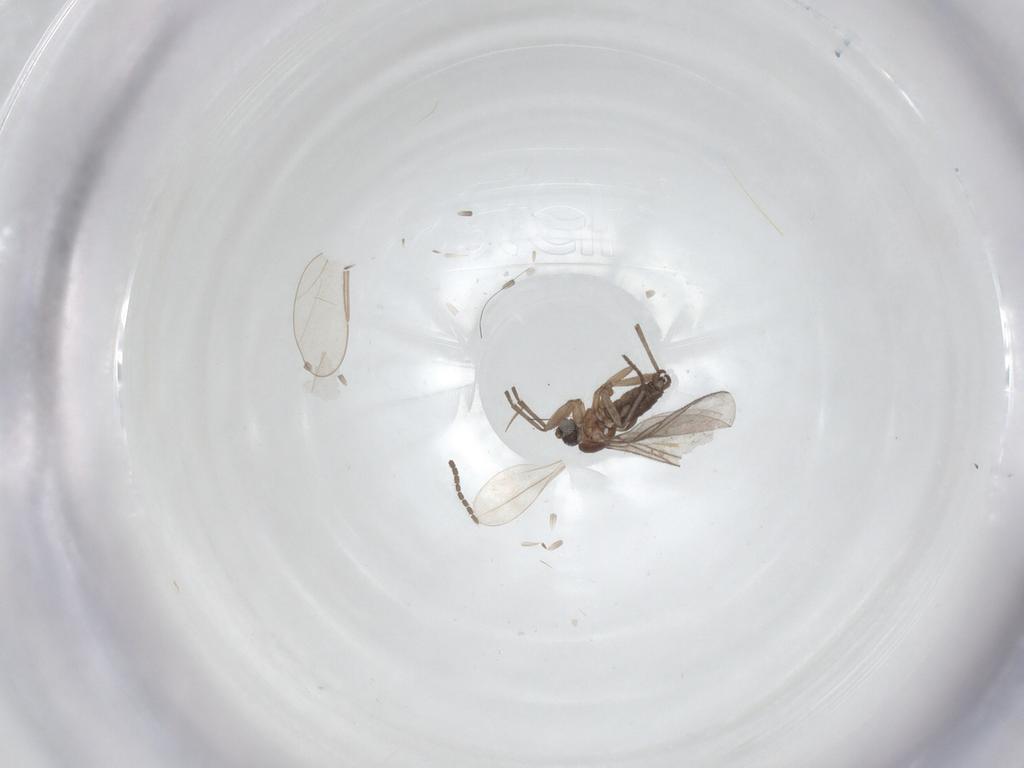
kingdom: Animalia
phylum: Arthropoda
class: Insecta
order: Diptera
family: Cecidomyiidae
